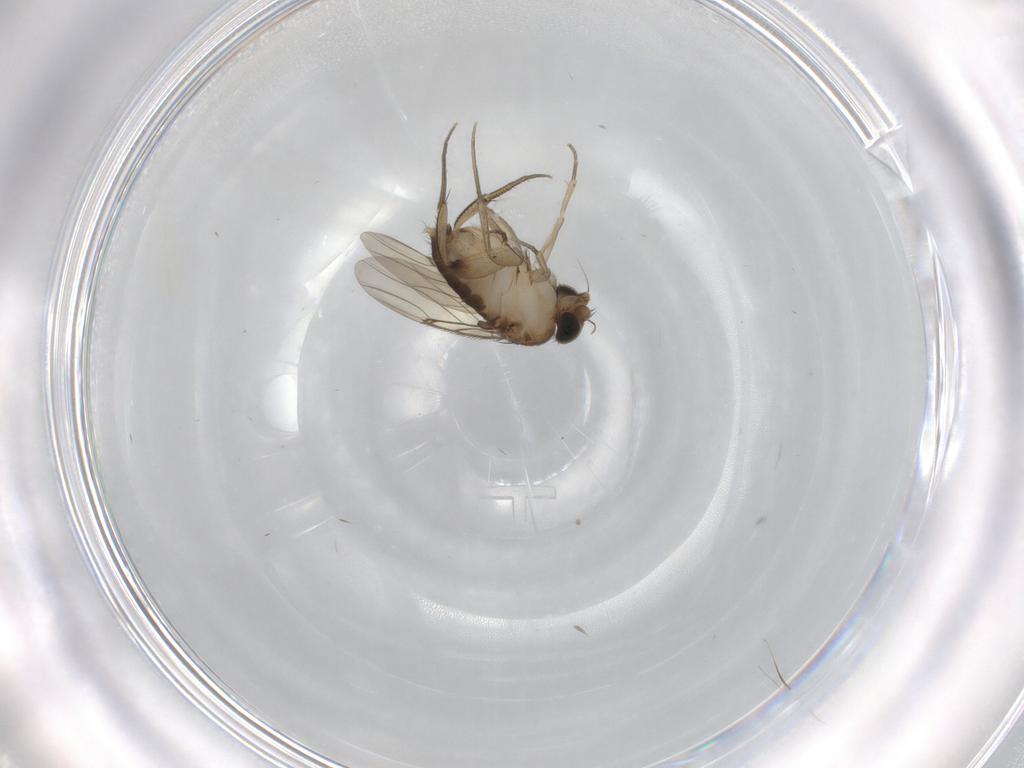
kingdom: Animalia
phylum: Arthropoda
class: Insecta
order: Diptera
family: Phoridae
